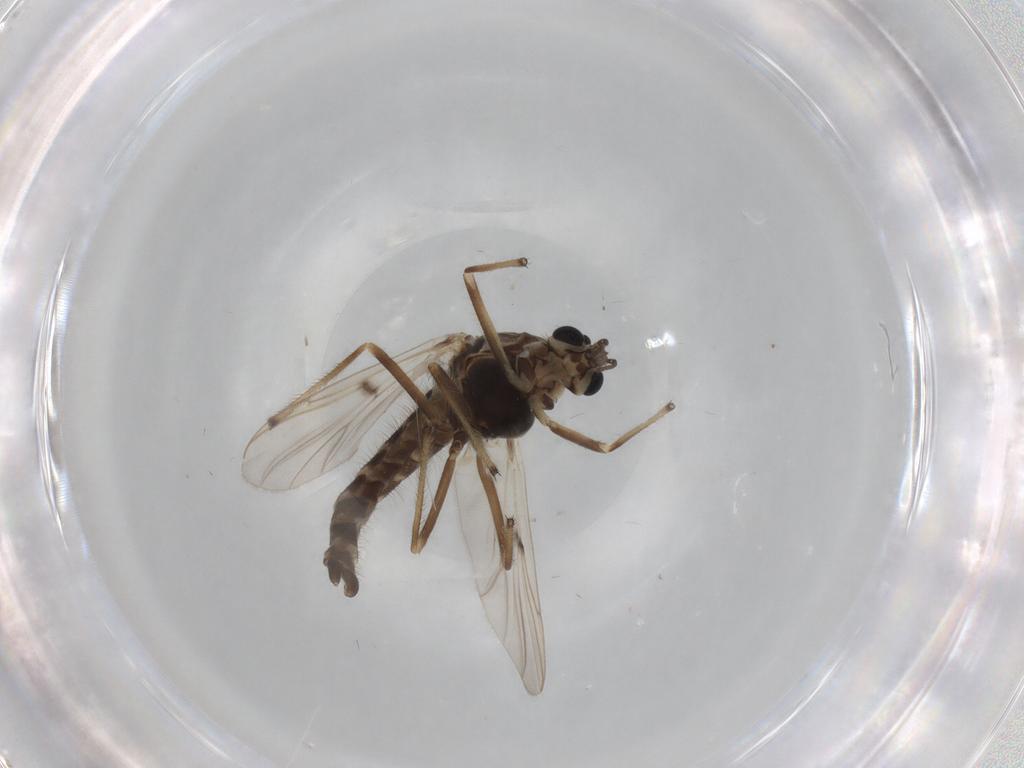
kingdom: Animalia
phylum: Arthropoda
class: Insecta
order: Diptera
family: Chironomidae
